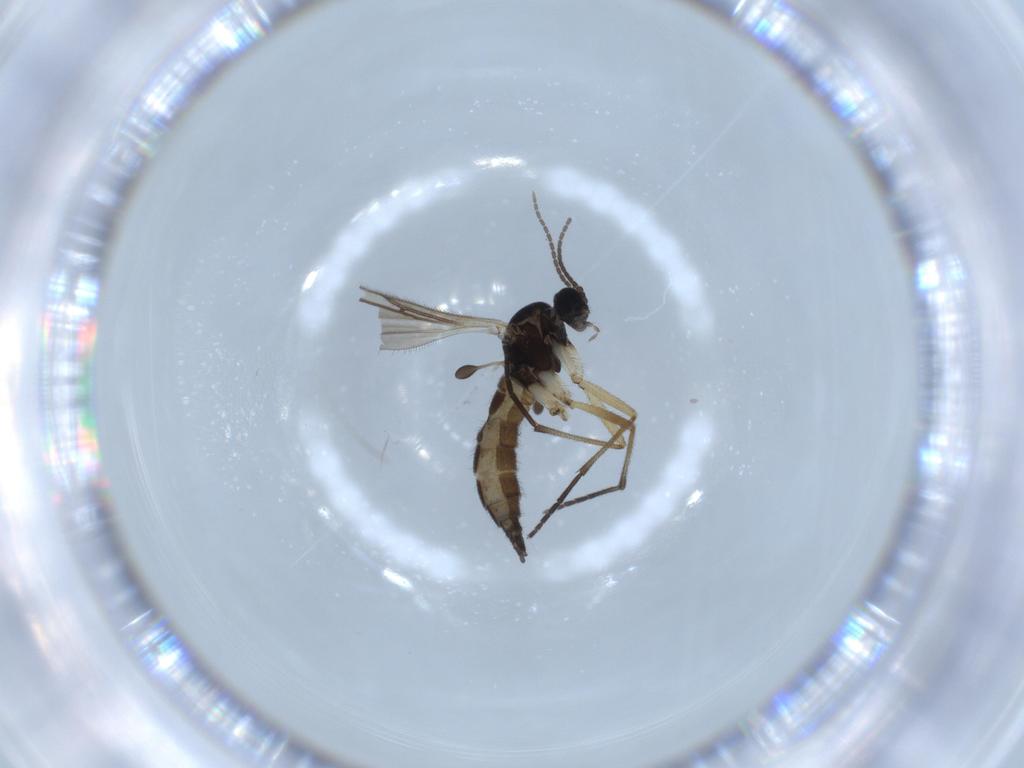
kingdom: Animalia
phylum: Arthropoda
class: Insecta
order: Diptera
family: Sciaridae
